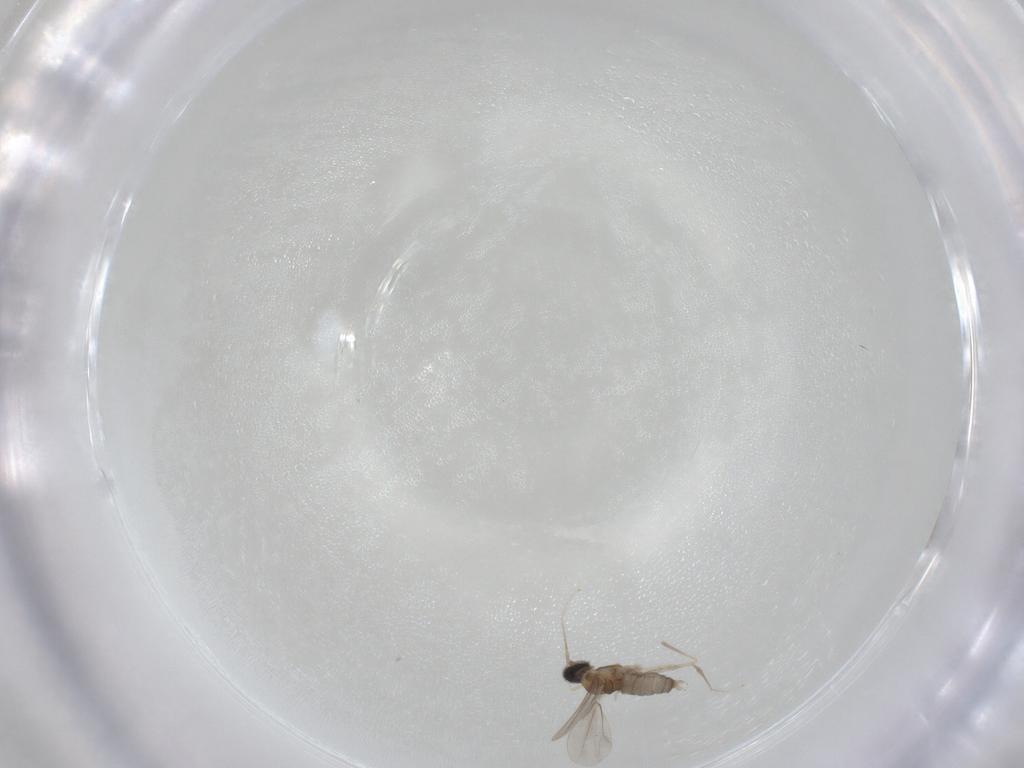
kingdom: Animalia
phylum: Arthropoda
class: Insecta
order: Diptera
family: Cecidomyiidae
